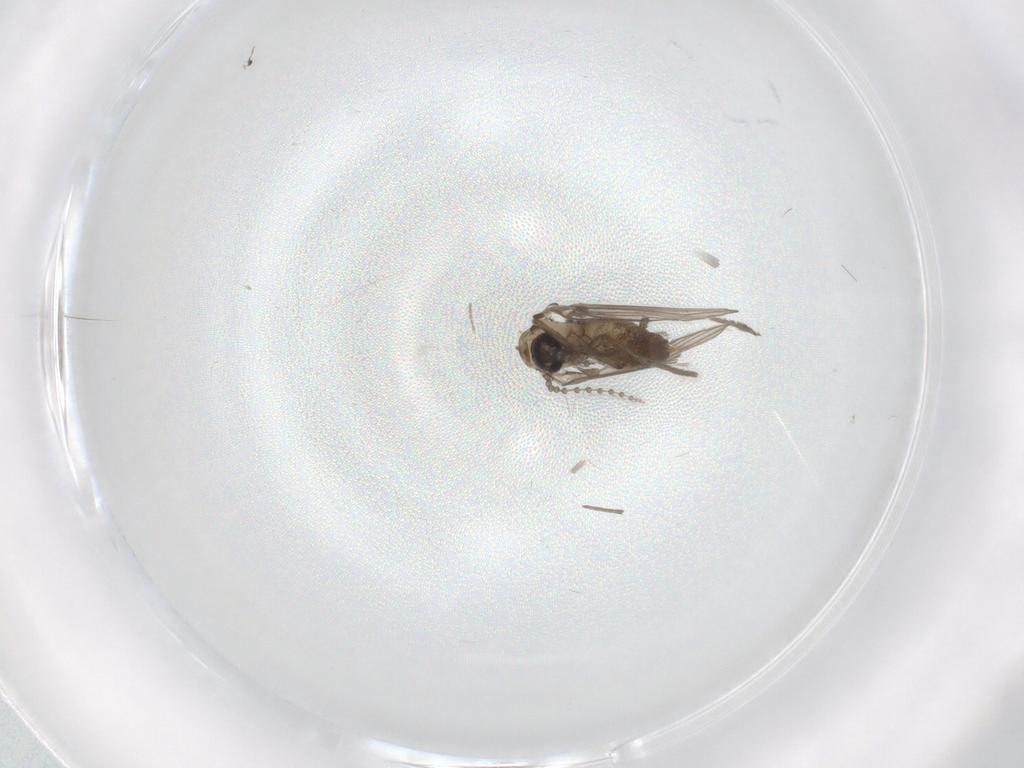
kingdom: Animalia
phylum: Arthropoda
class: Insecta
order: Diptera
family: Psychodidae
